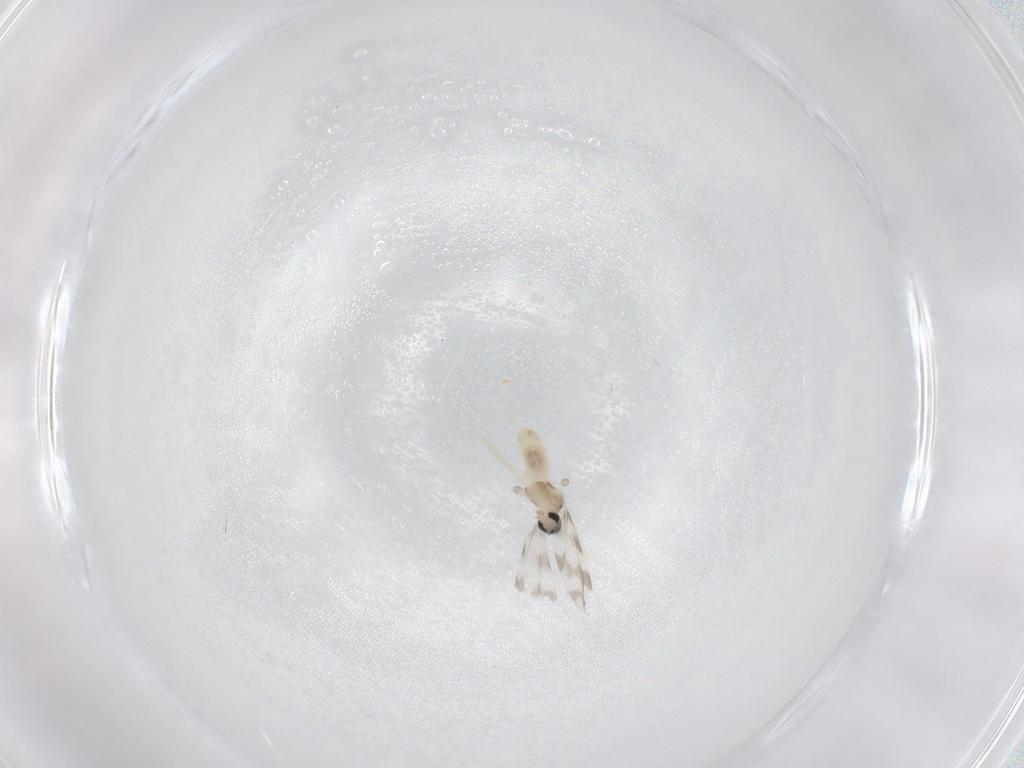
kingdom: Animalia
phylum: Arthropoda
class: Insecta
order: Diptera
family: Cecidomyiidae
